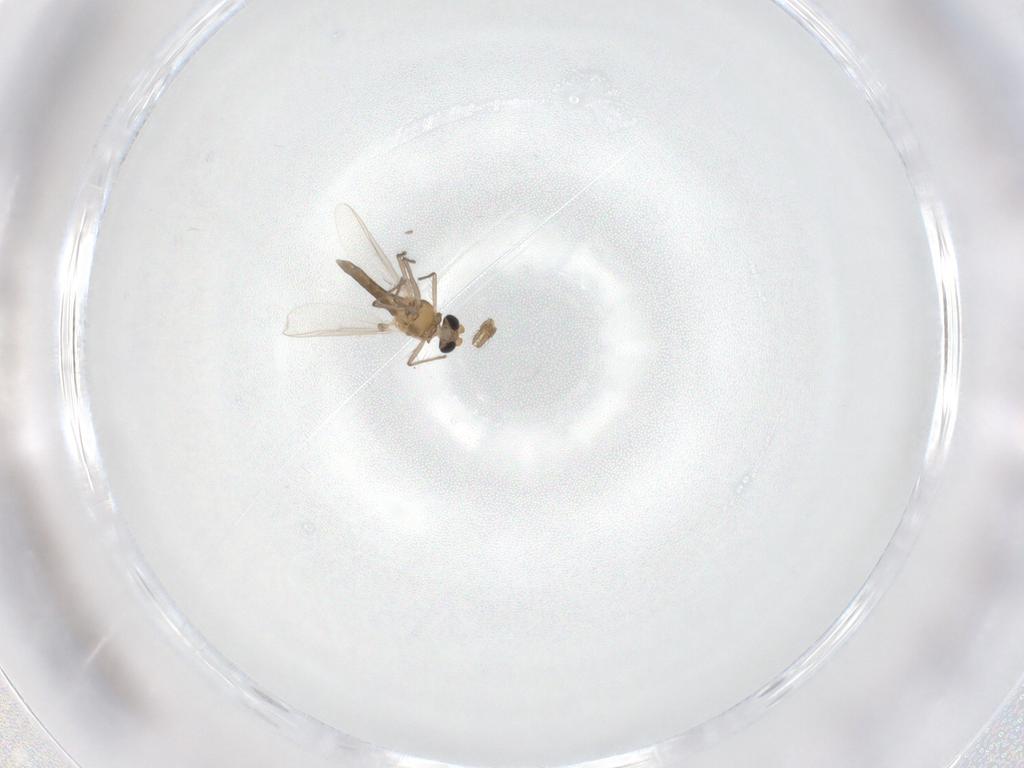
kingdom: Animalia
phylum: Arthropoda
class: Insecta
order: Diptera
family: Chironomidae
